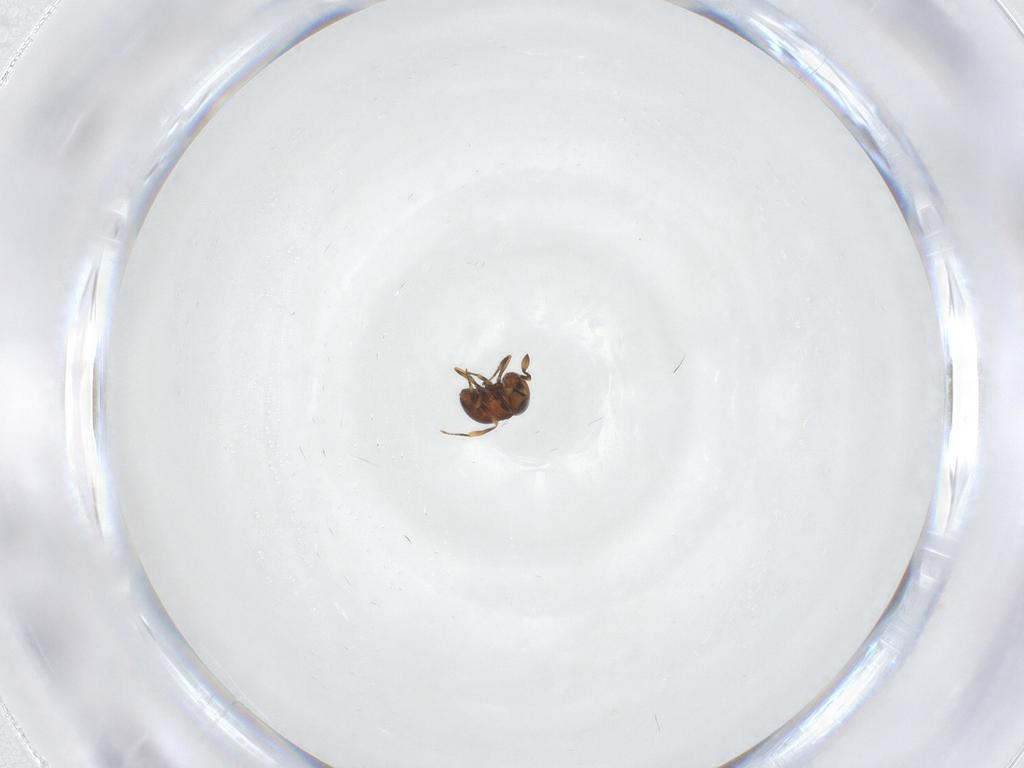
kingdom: Animalia
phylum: Arthropoda
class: Insecta
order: Hymenoptera
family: Scelionidae
